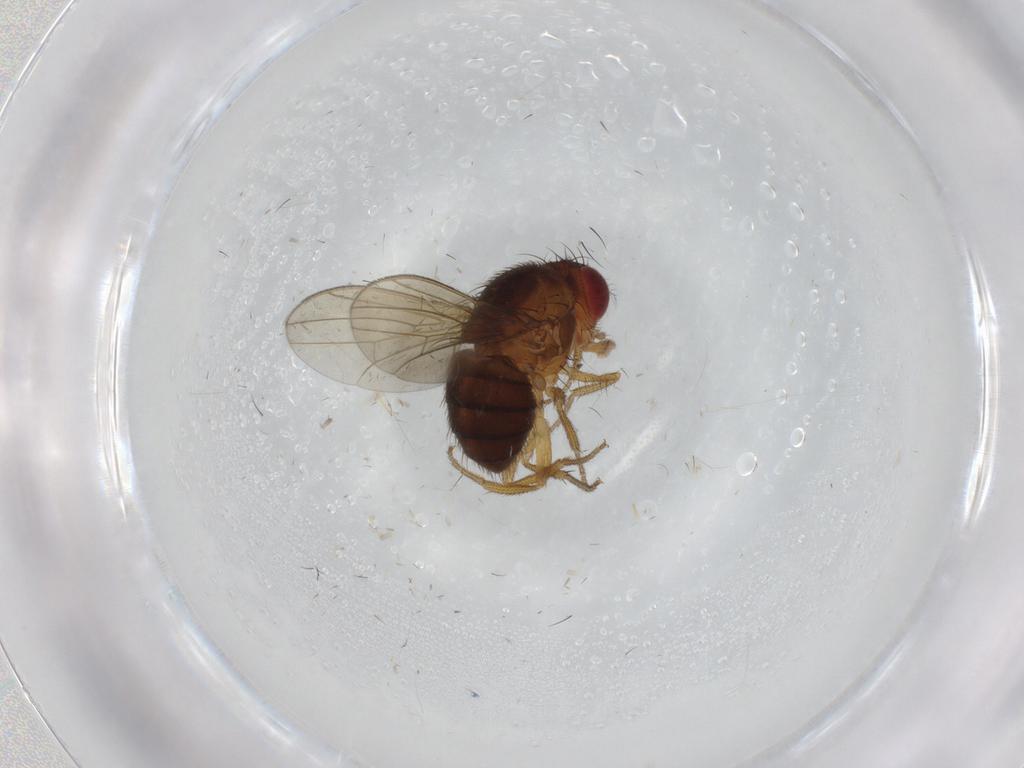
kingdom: Animalia
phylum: Arthropoda
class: Insecta
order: Diptera
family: Drosophilidae
